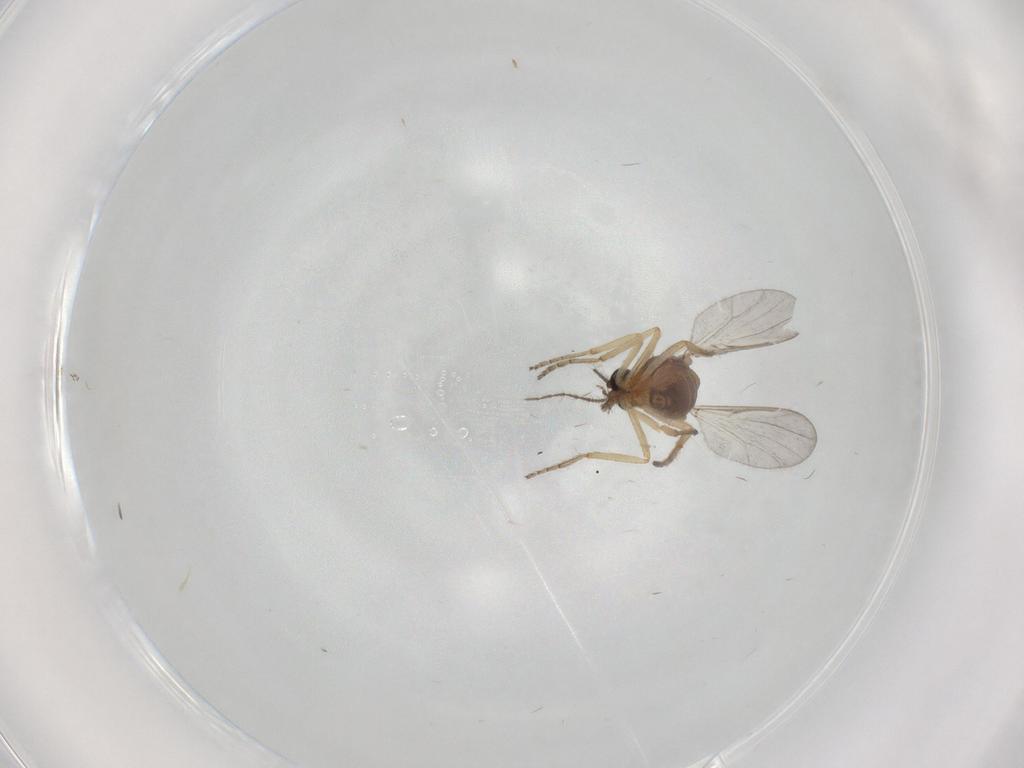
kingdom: Animalia
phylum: Arthropoda
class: Insecta
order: Diptera
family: Ceratopogonidae
